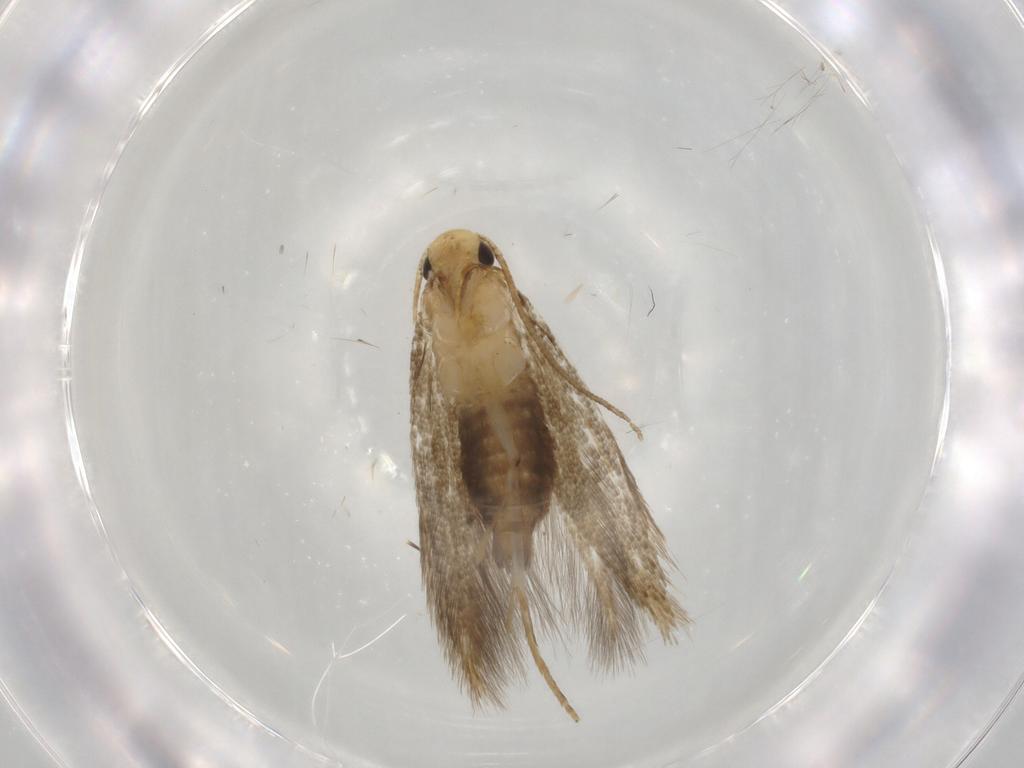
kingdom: Animalia
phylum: Arthropoda
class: Insecta
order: Lepidoptera
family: Tineidae
